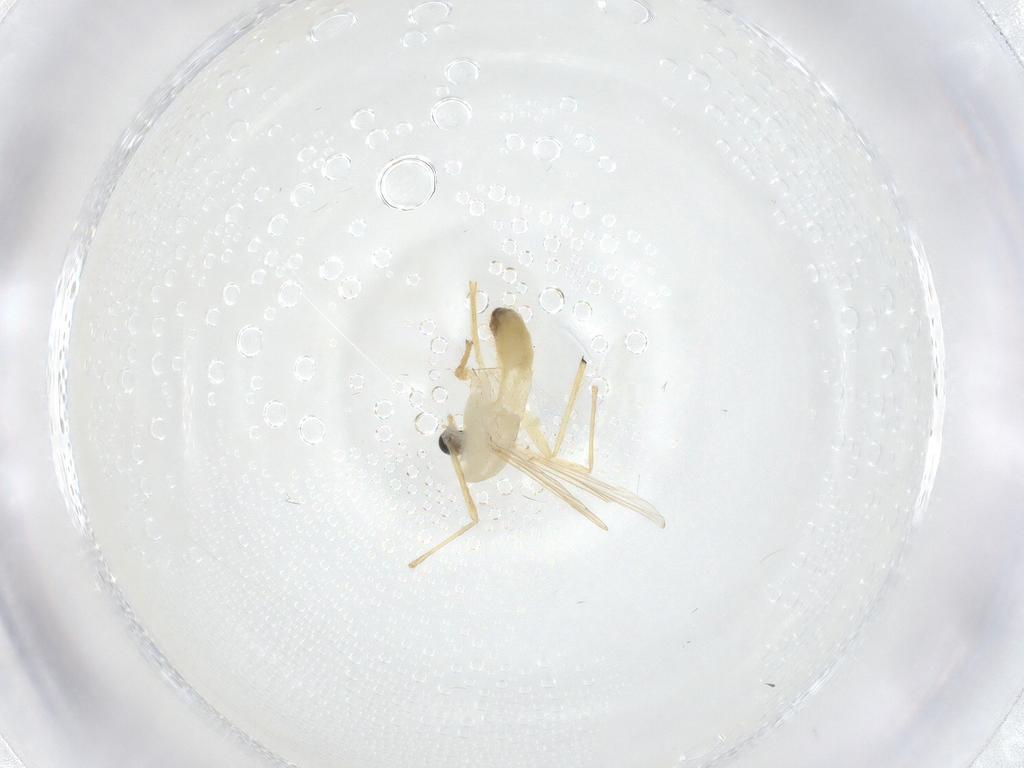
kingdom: Animalia
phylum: Arthropoda
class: Insecta
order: Diptera
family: Chironomidae
